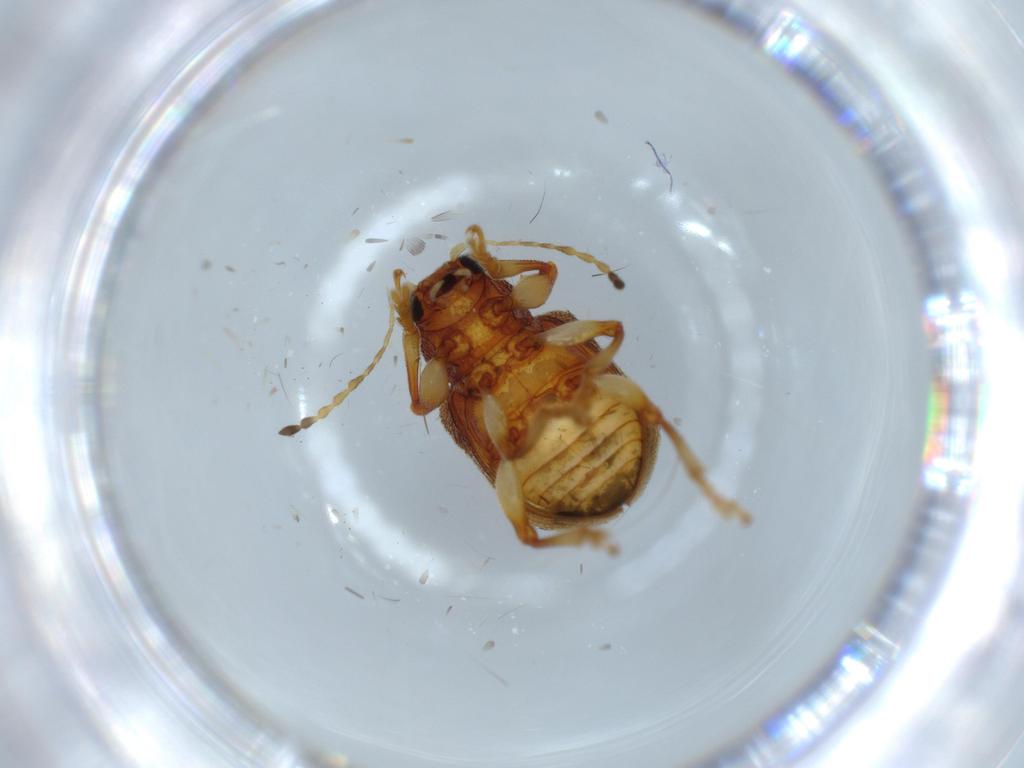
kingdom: Animalia
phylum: Arthropoda
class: Insecta
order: Coleoptera
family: Chrysomelidae
